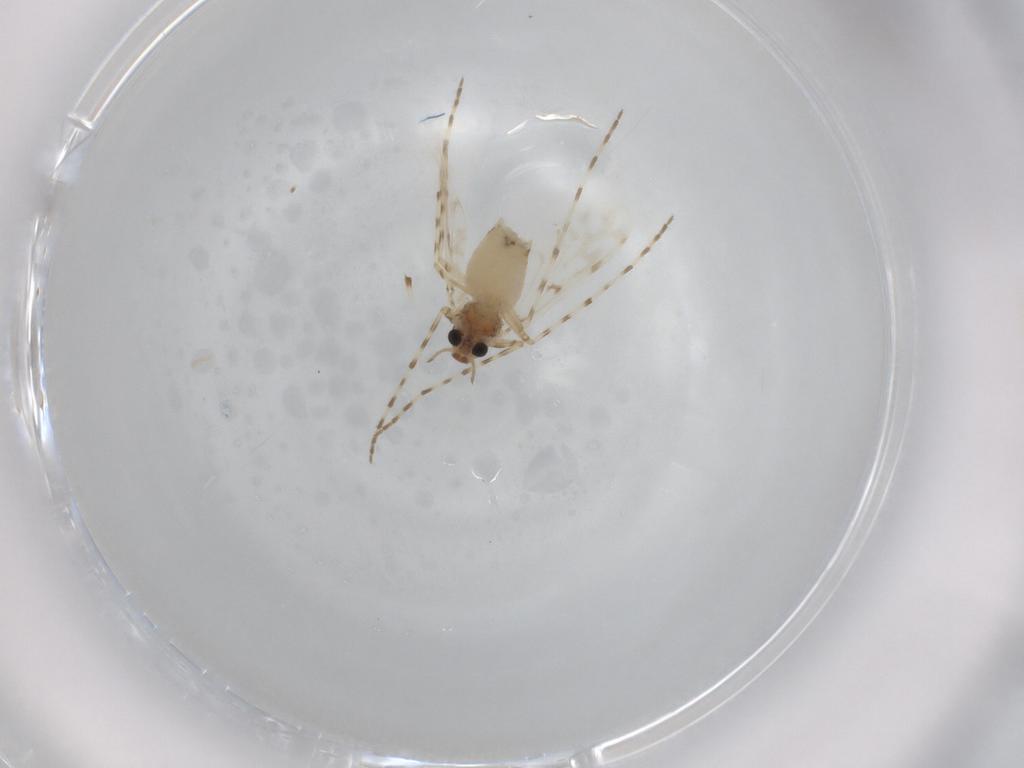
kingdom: Animalia
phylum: Arthropoda
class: Insecta
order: Diptera
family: Chironomidae
